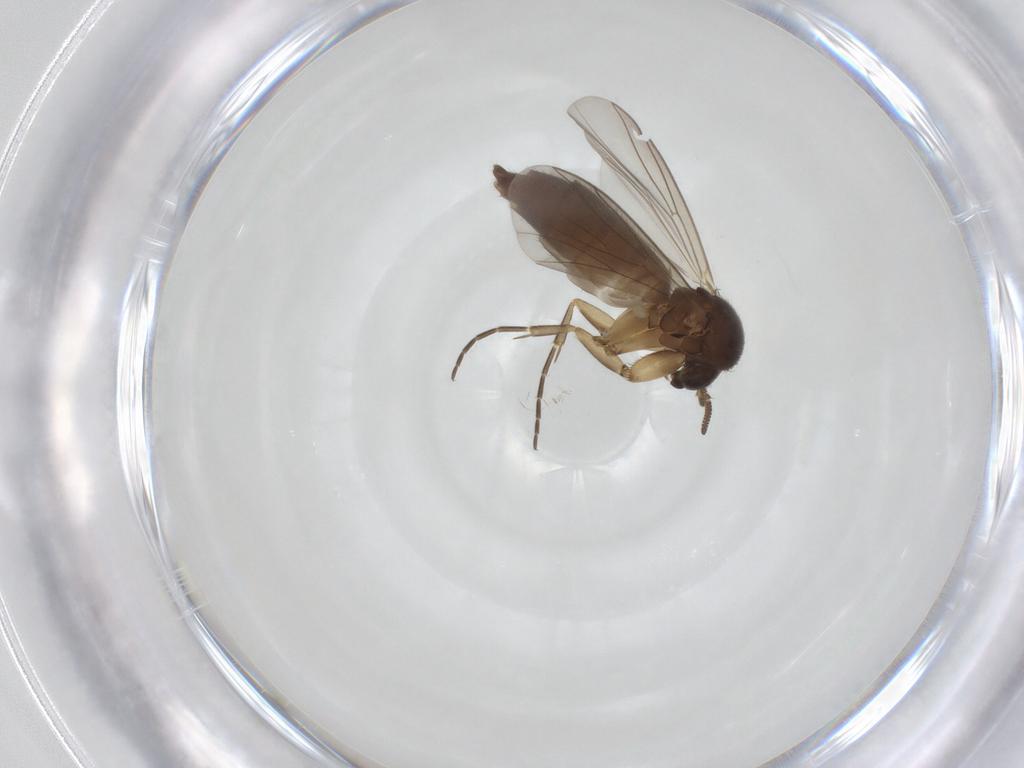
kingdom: Animalia
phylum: Arthropoda
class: Insecta
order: Diptera
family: Mycetophilidae
